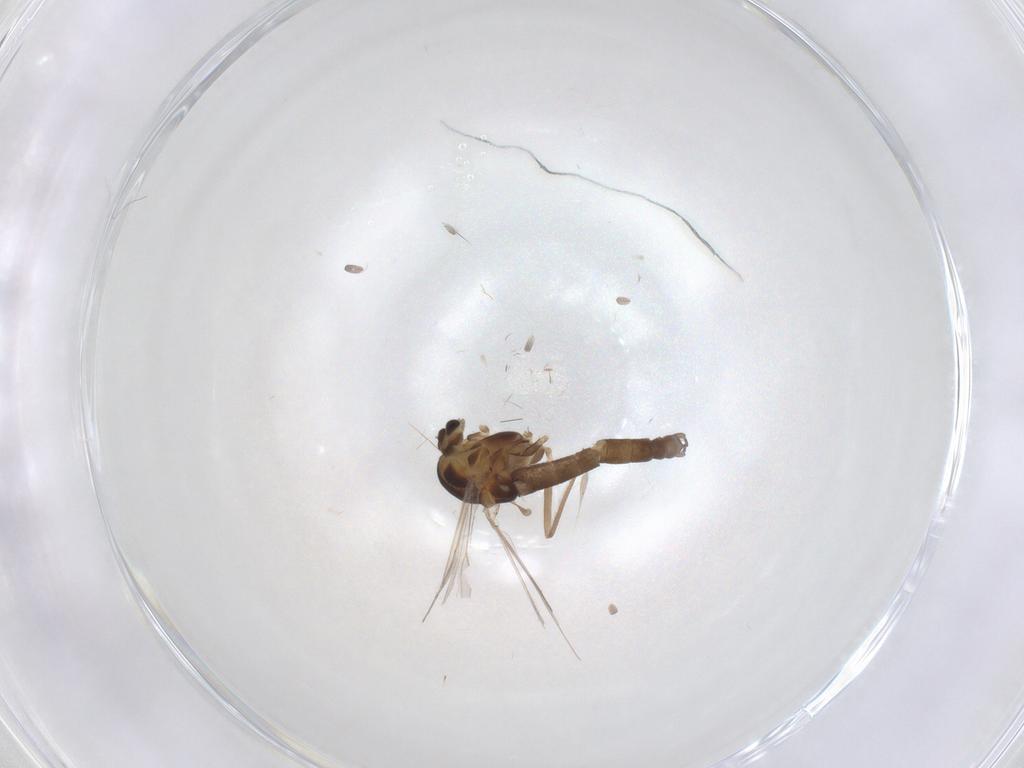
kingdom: Animalia
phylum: Arthropoda
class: Insecta
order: Diptera
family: Chironomidae
